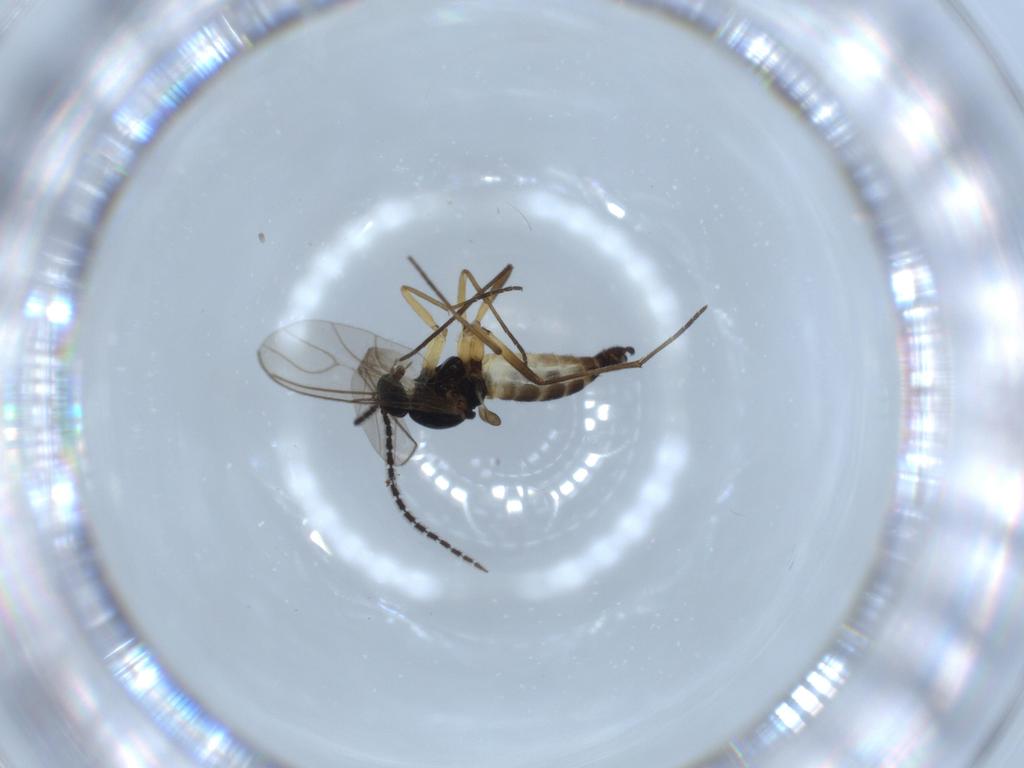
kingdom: Animalia
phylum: Arthropoda
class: Insecta
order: Diptera
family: Sciaridae
